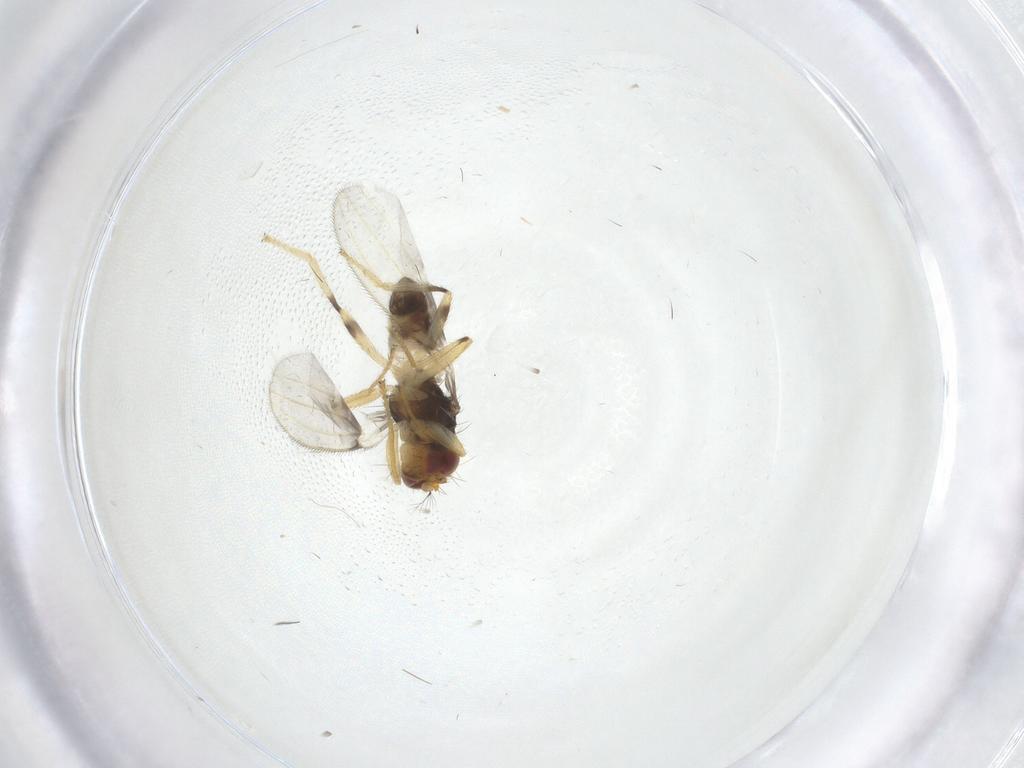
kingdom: Animalia
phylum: Arthropoda
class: Insecta
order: Diptera
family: Periscelididae
